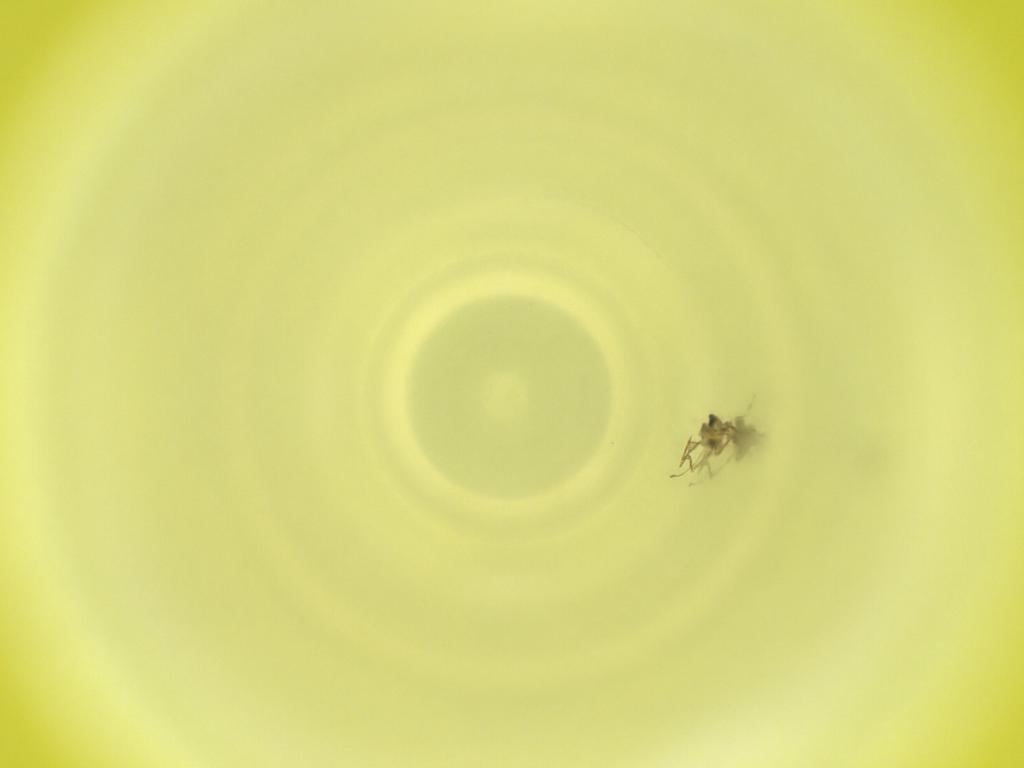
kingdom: Animalia
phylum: Arthropoda
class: Insecta
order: Diptera
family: Cecidomyiidae
